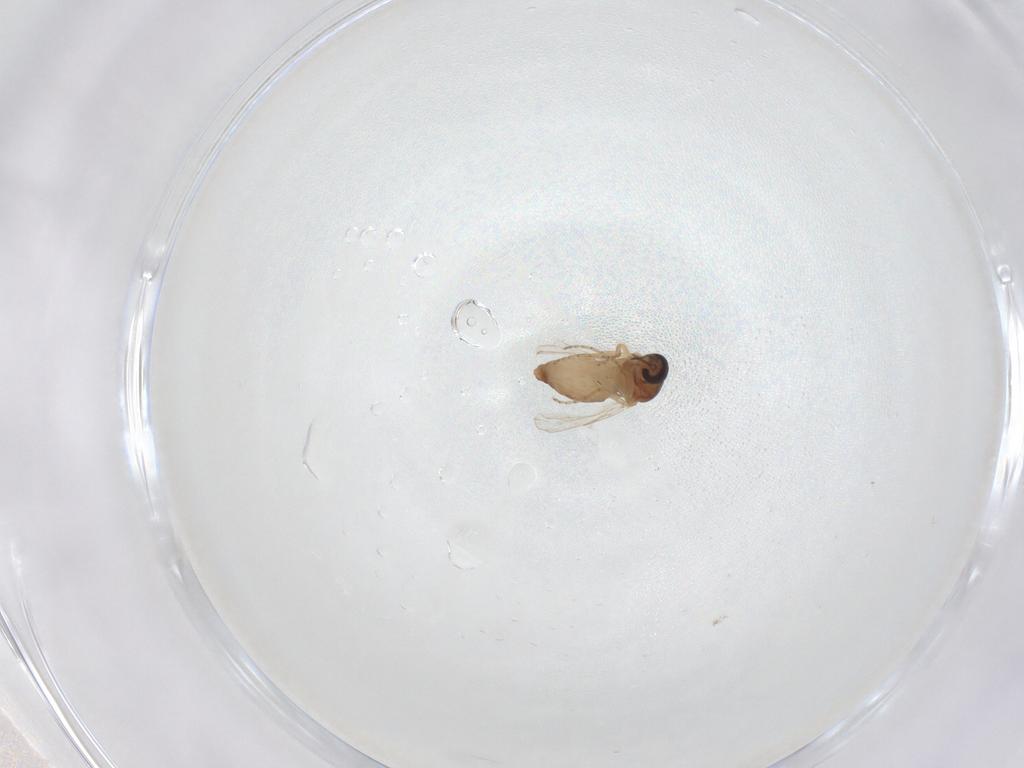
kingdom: Animalia
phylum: Arthropoda
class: Insecta
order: Diptera
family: Ceratopogonidae
